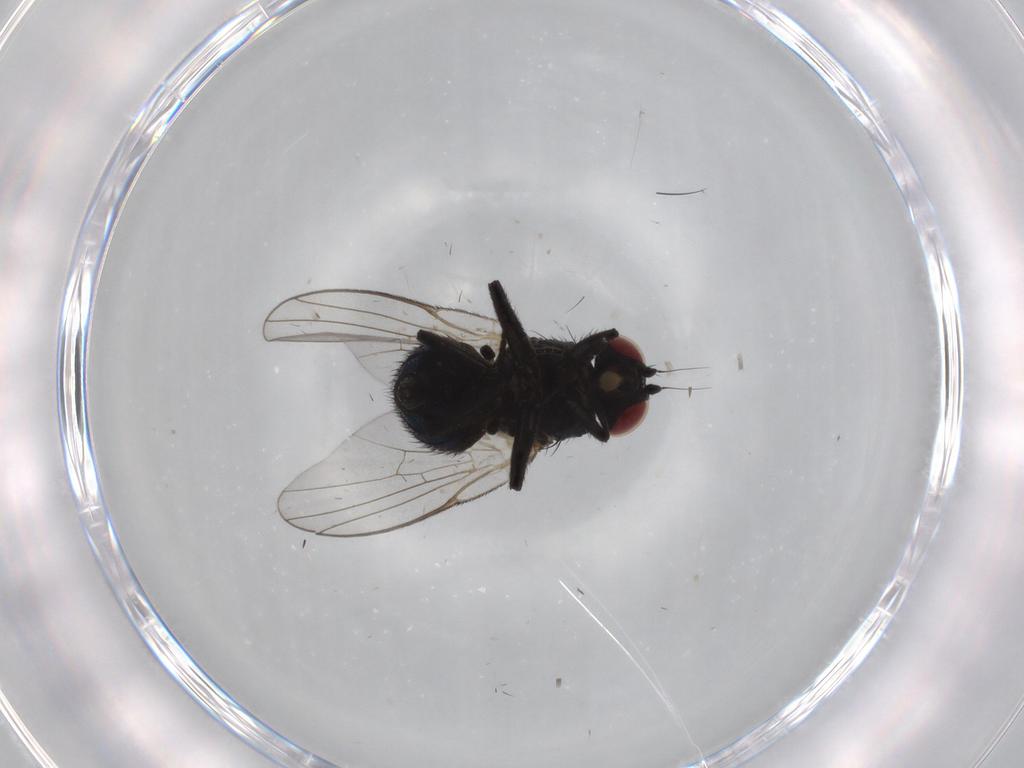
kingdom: Animalia
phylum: Arthropoda
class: Insecta
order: Diptera
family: Agromyzidae
